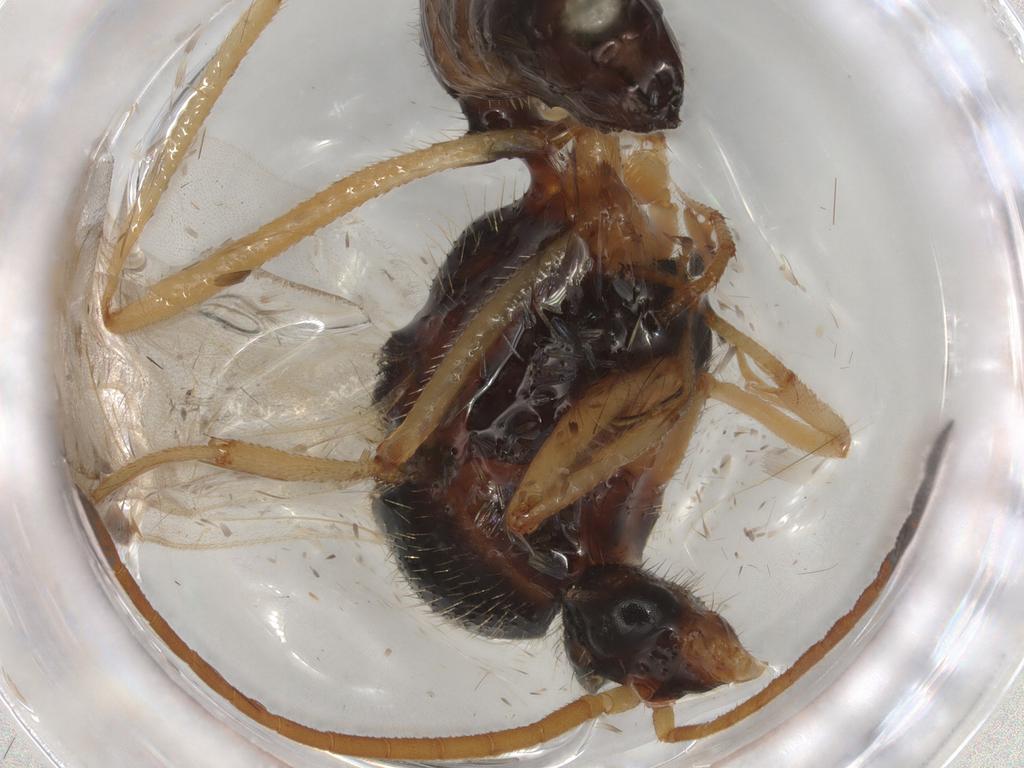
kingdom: Animalia
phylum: Arthropoda
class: Insecta
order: Hymenoptera
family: Formicidae
